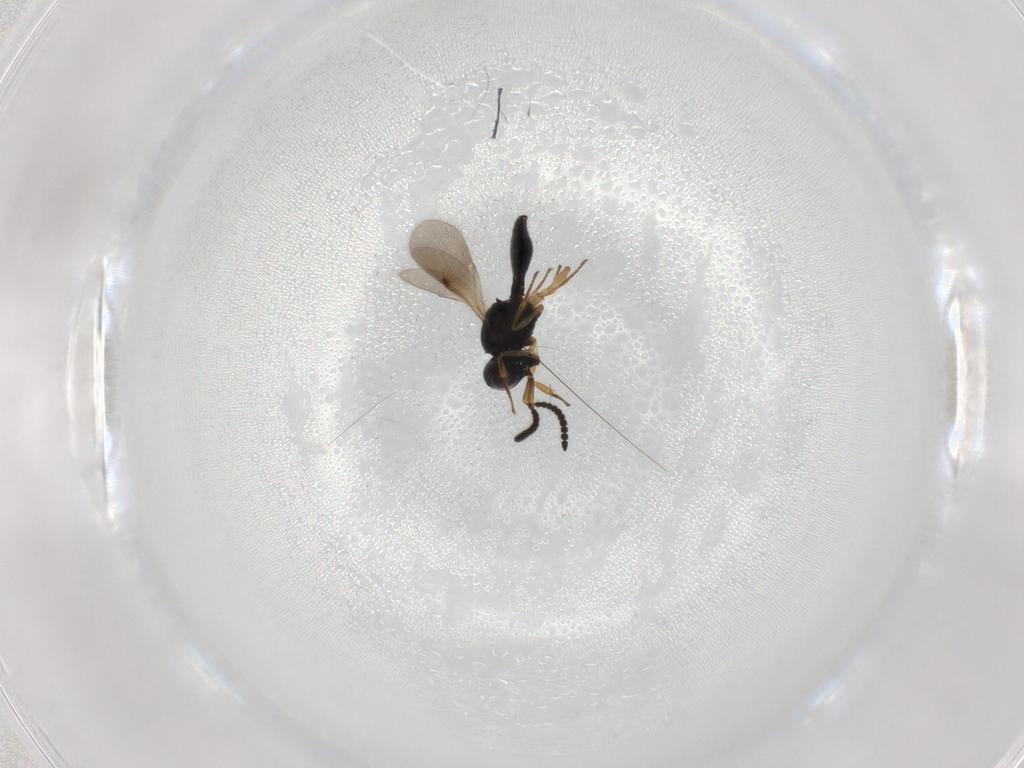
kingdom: Animalia
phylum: Arthropoda
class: Insecta
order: Hymenoptera
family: Scelionidae
